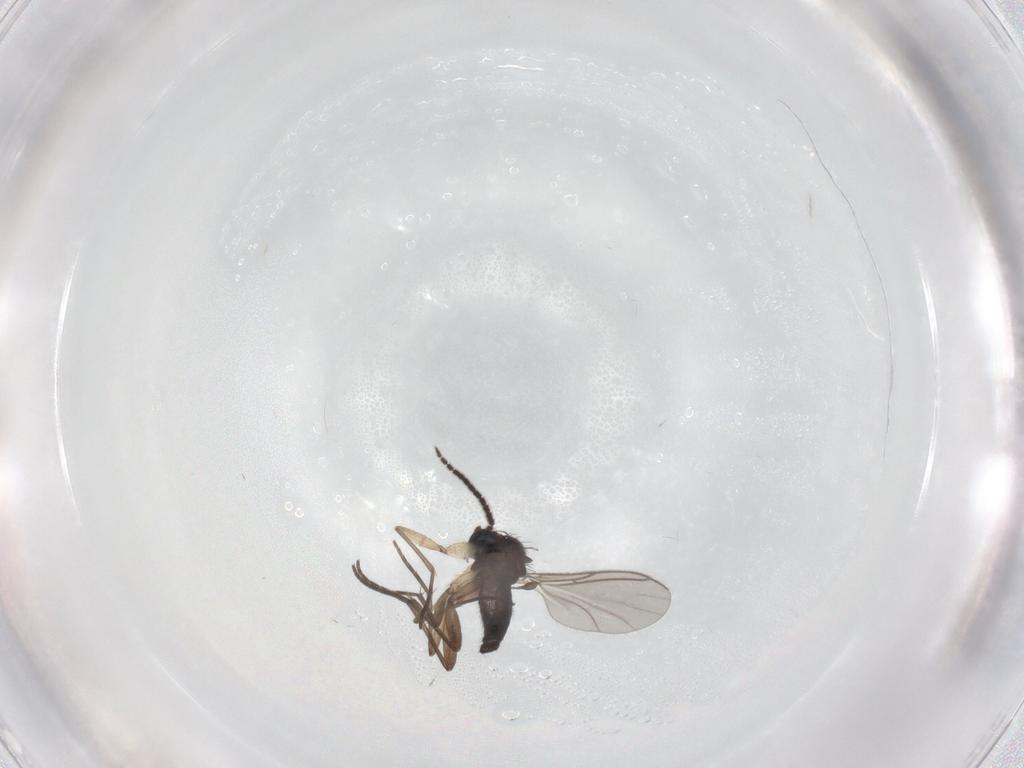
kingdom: Animalia
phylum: Arthropoda
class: Insecta
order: Diptera
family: Sciaridae
